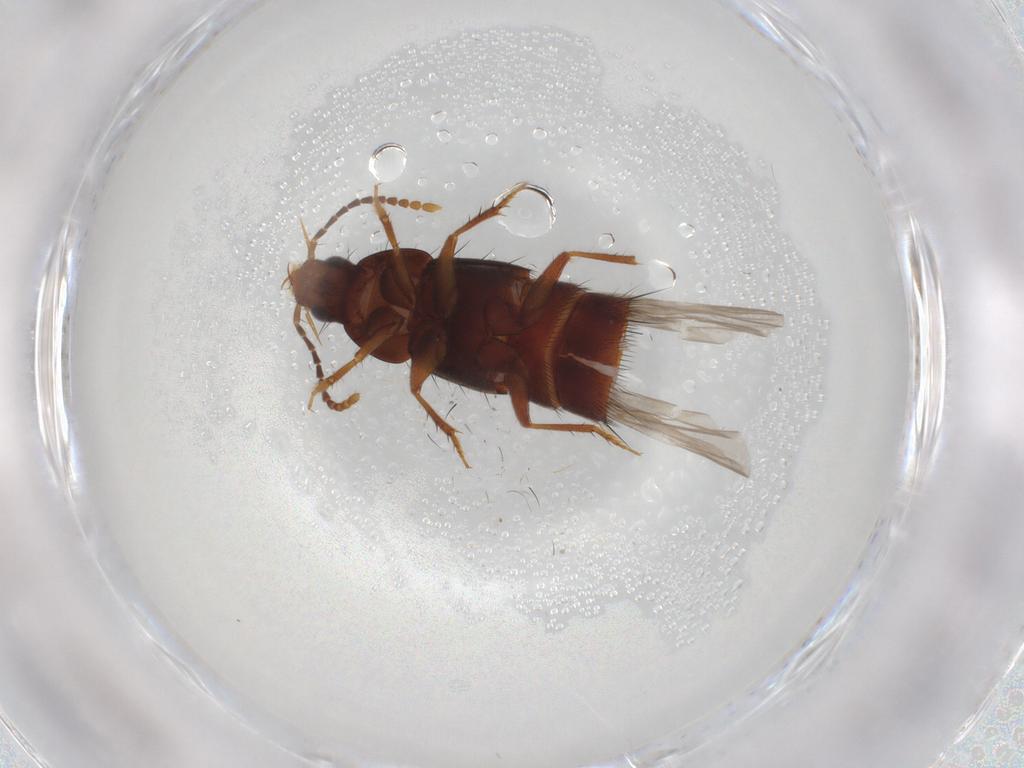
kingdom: Animalia
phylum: Arthropoda
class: Insecta
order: Coleoptera
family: Staphylinidae
